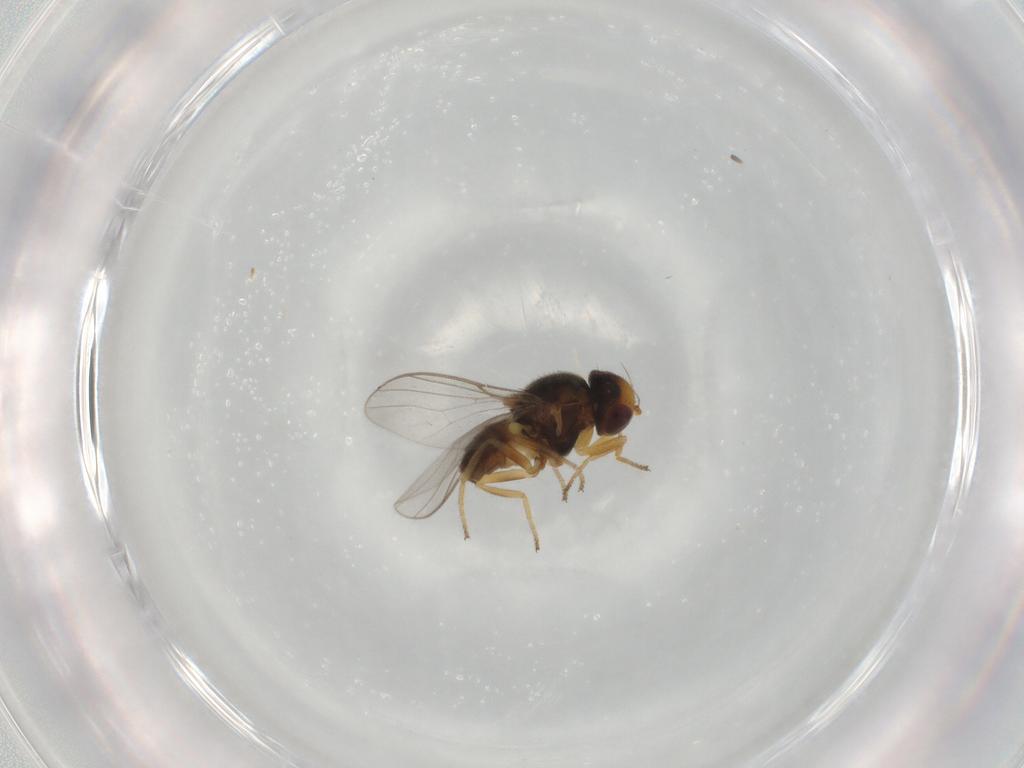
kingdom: Animalia
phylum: Arthropoda
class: Insecta
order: Diptera
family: Chloropidae
